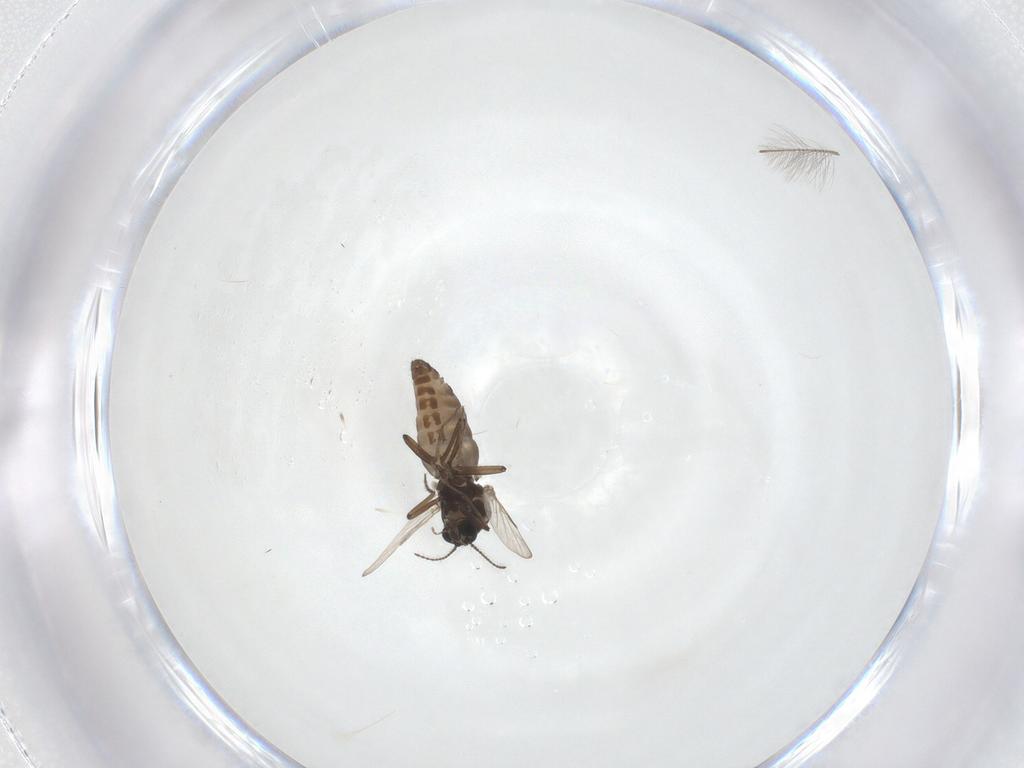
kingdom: Animalia
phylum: Arthropoda
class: Insecta
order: Diptera
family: Ceratopogonidae
